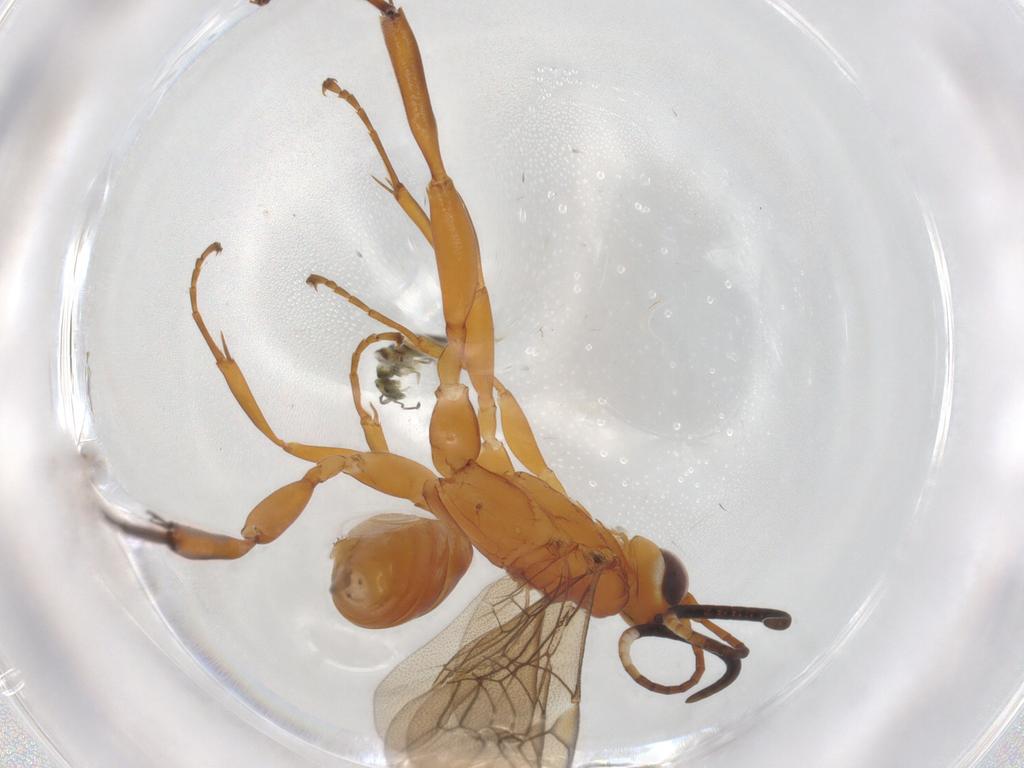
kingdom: Animalia
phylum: Arthropoda
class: Insecta
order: Hymenoptera
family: Ichneumonidae
